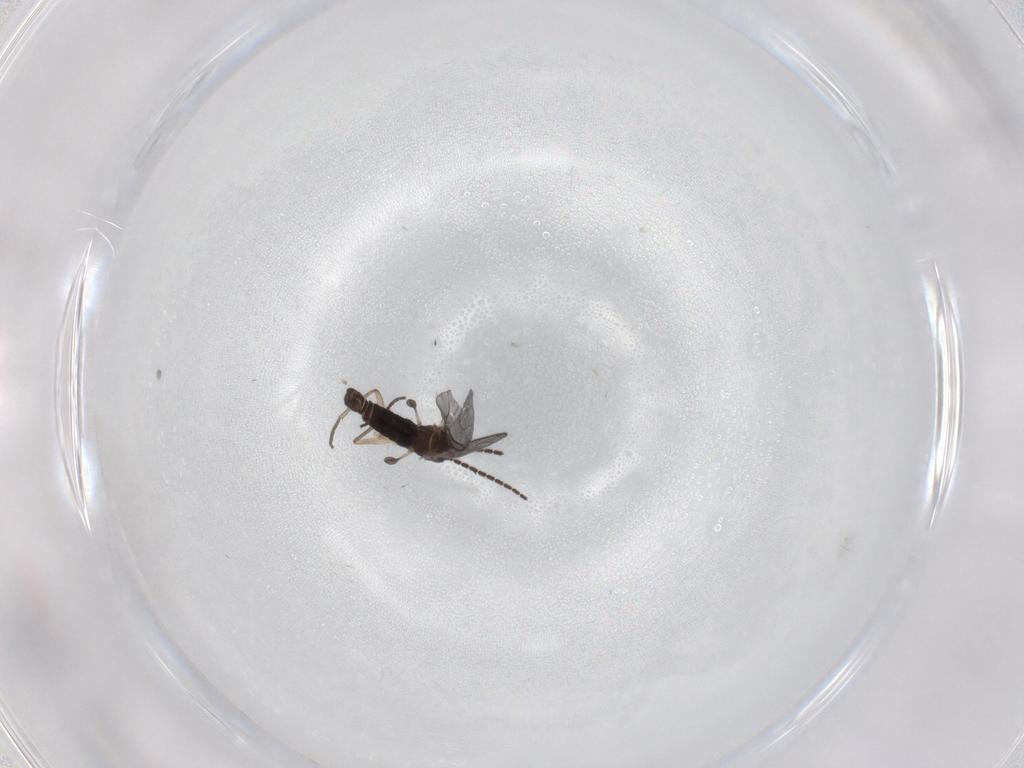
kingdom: Animalia
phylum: Arthropoda
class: Insecta
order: Diptera
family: Sciaridae
